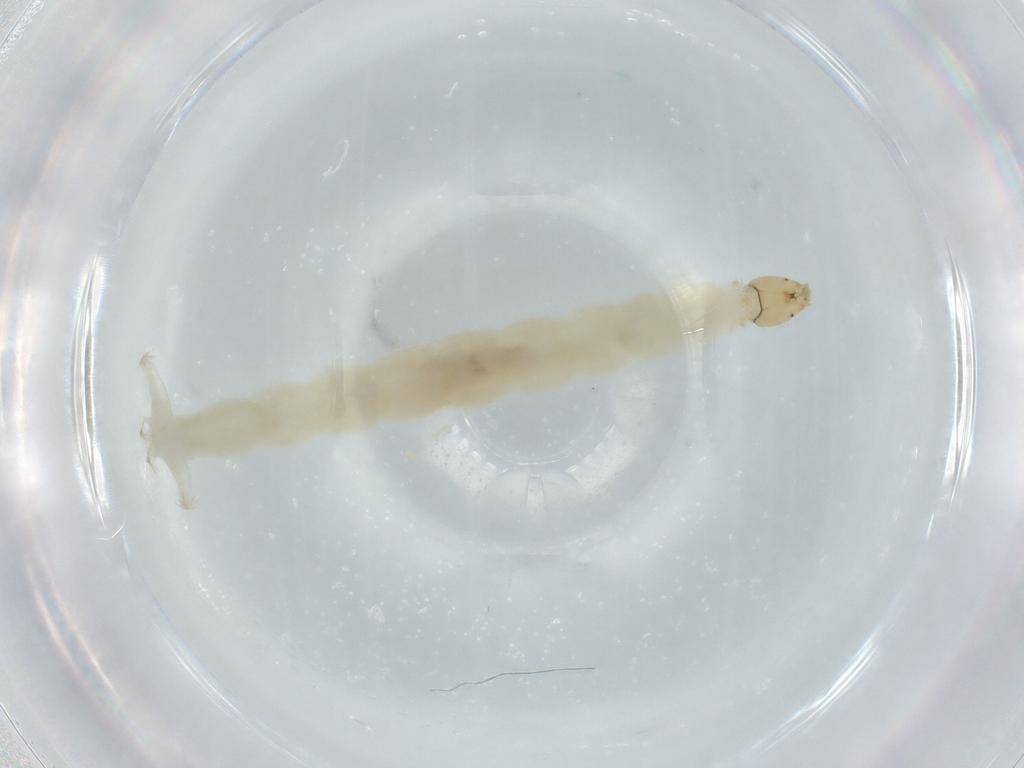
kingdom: Animalia
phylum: Arthropoda
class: Insecta
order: Diptera
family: Chironomidae
